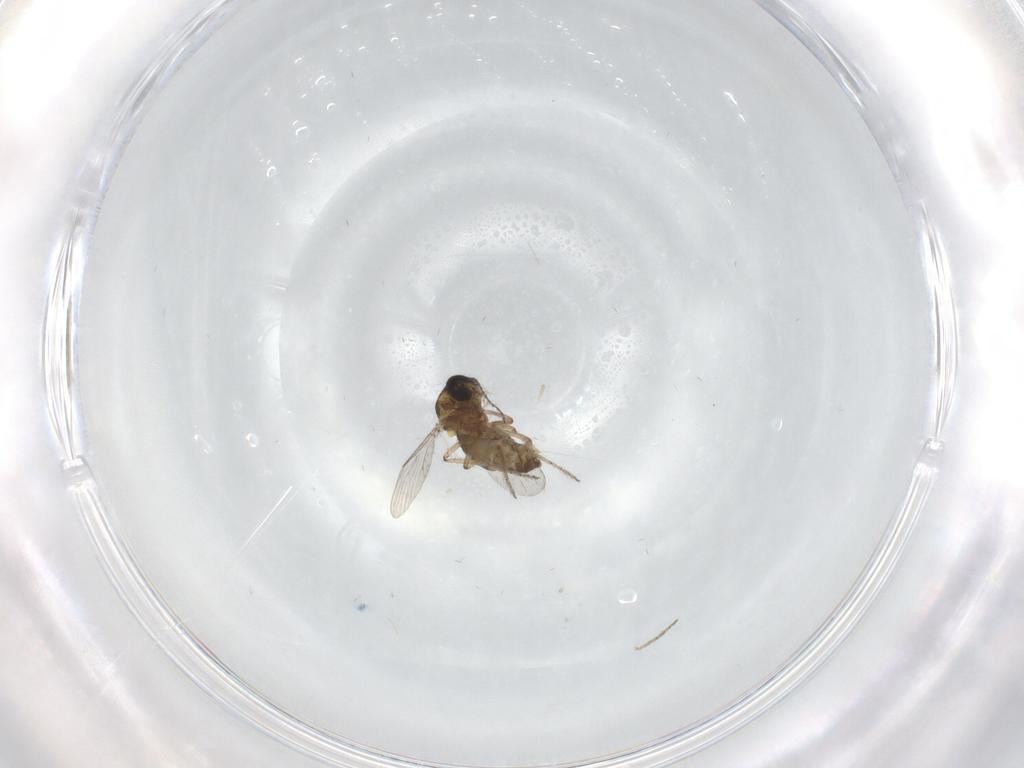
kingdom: Animalia
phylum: Arthropoda
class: Insecta
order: Diptera
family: Ceratopogonidae
